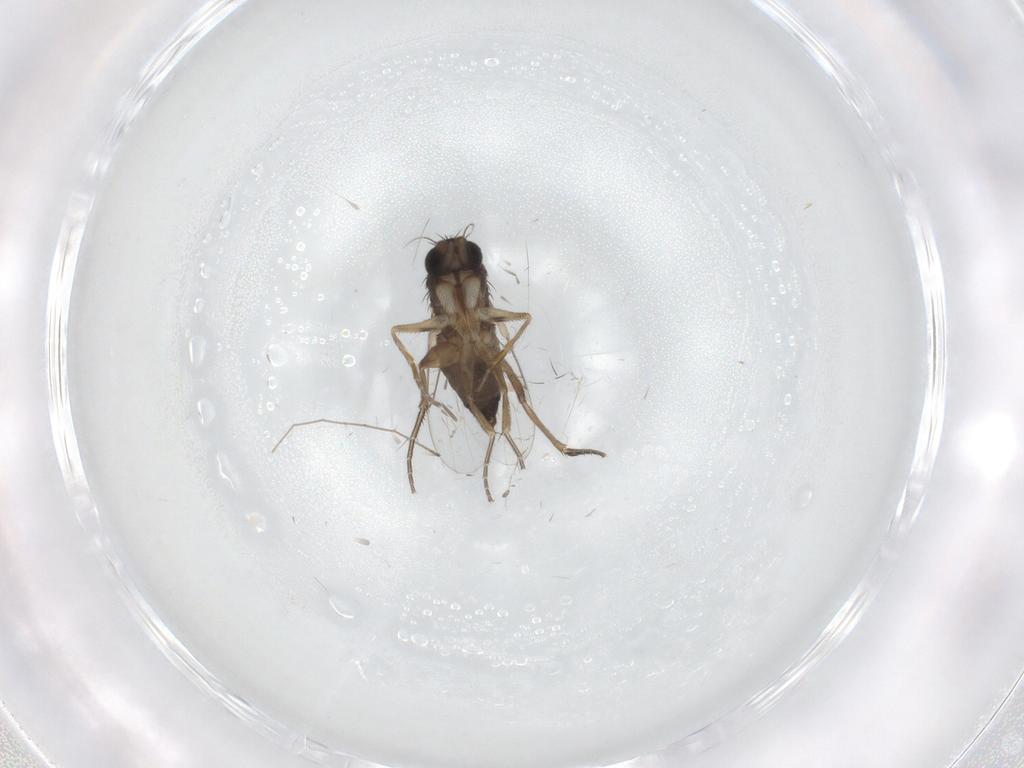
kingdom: Animalia
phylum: Arthropoda
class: Insecta
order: Diptera
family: Phoridae
